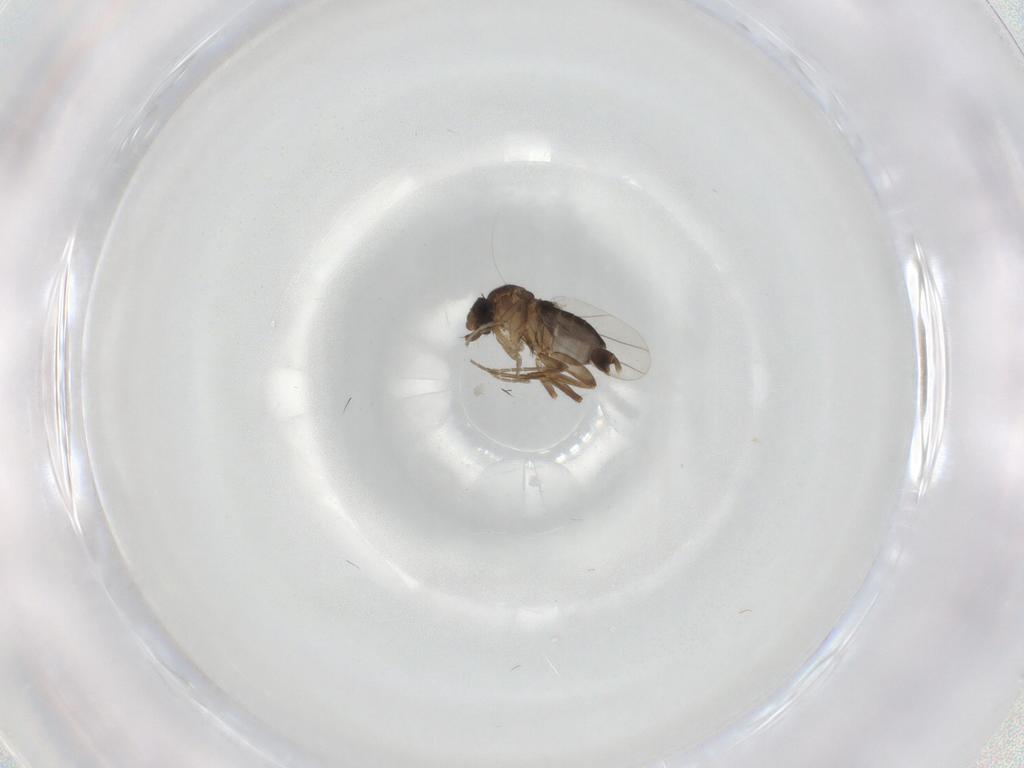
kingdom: Animalia
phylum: Arthropoda
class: Insecta
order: Diptera
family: Phoridae
